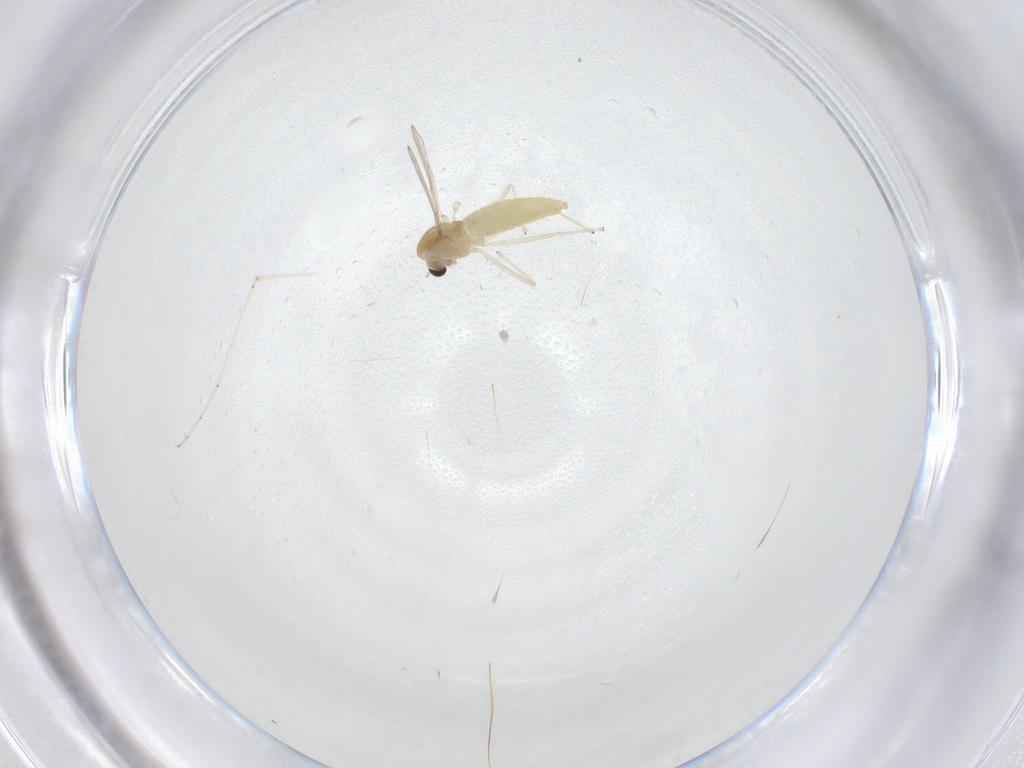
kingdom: Animalia
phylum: Arthropoda
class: Insecta
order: Diptera
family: Chironomidae
